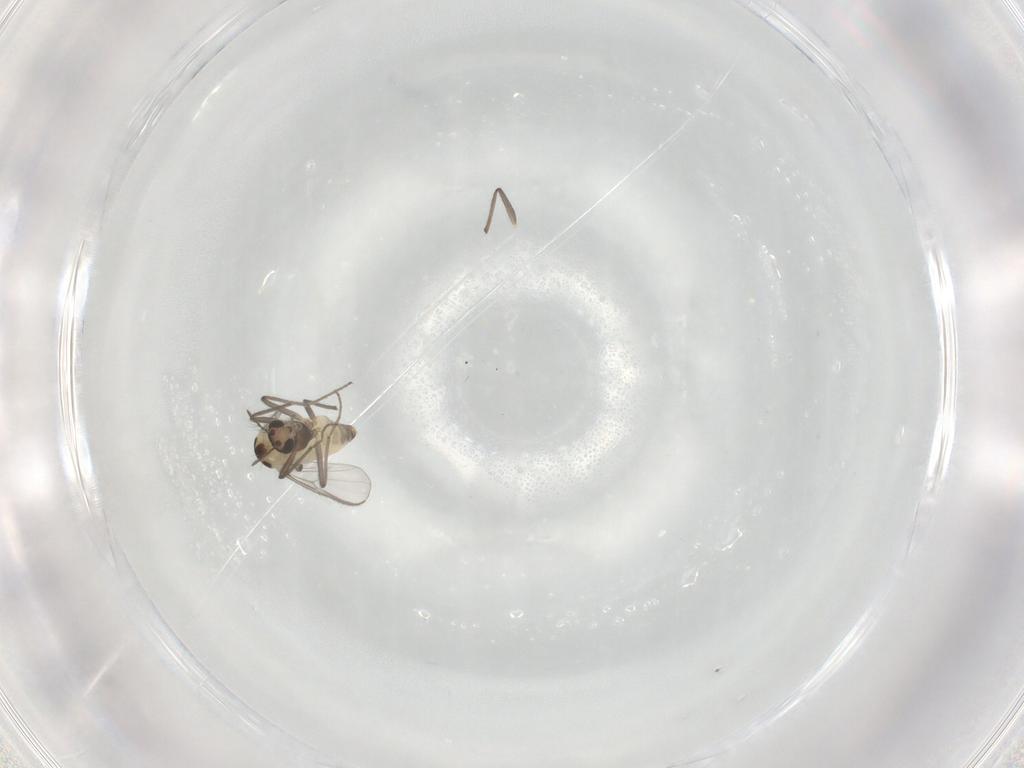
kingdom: Animalia
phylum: Arthropoda
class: Insecta
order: Diptera
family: Chironomidae
